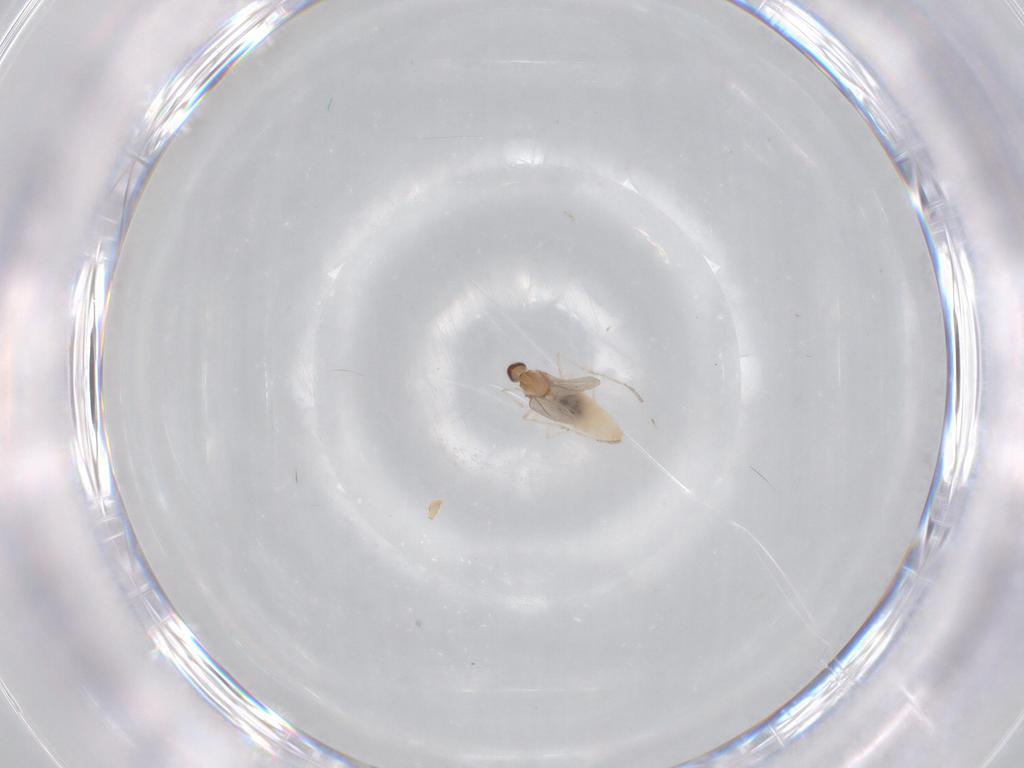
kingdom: Animalia
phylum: Arthropoda
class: Insecta
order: Diptera
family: Cecidomyiidae
